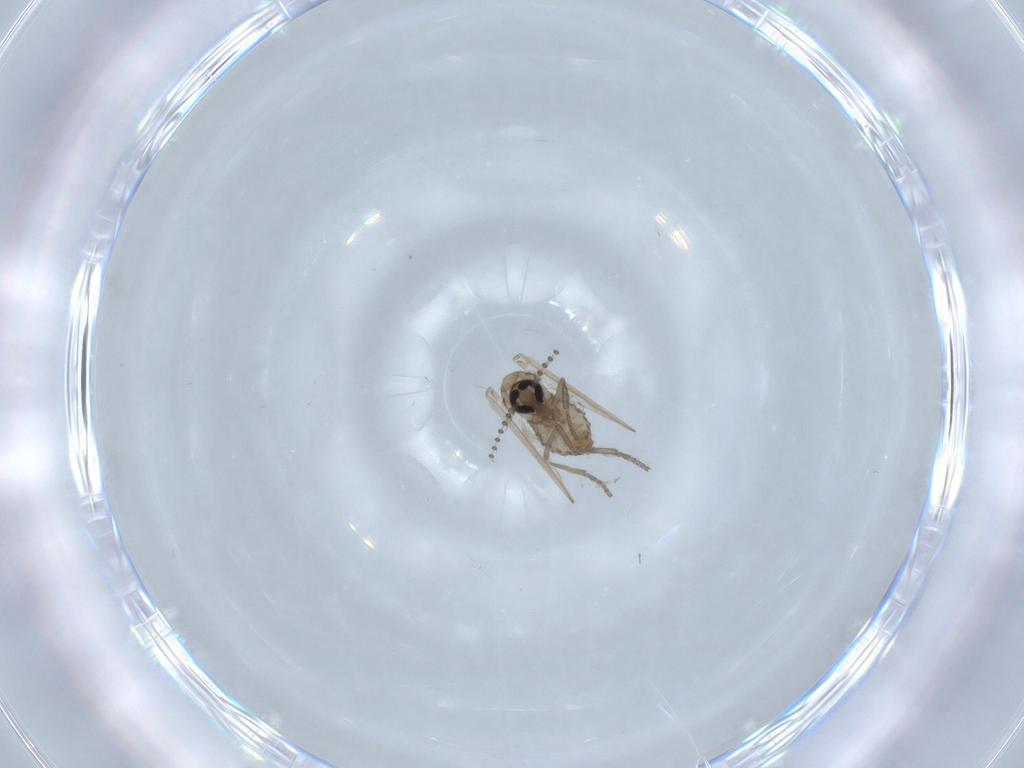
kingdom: Animalia
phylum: Arthropoda
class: Insecta
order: Diptera
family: Psychodidae
